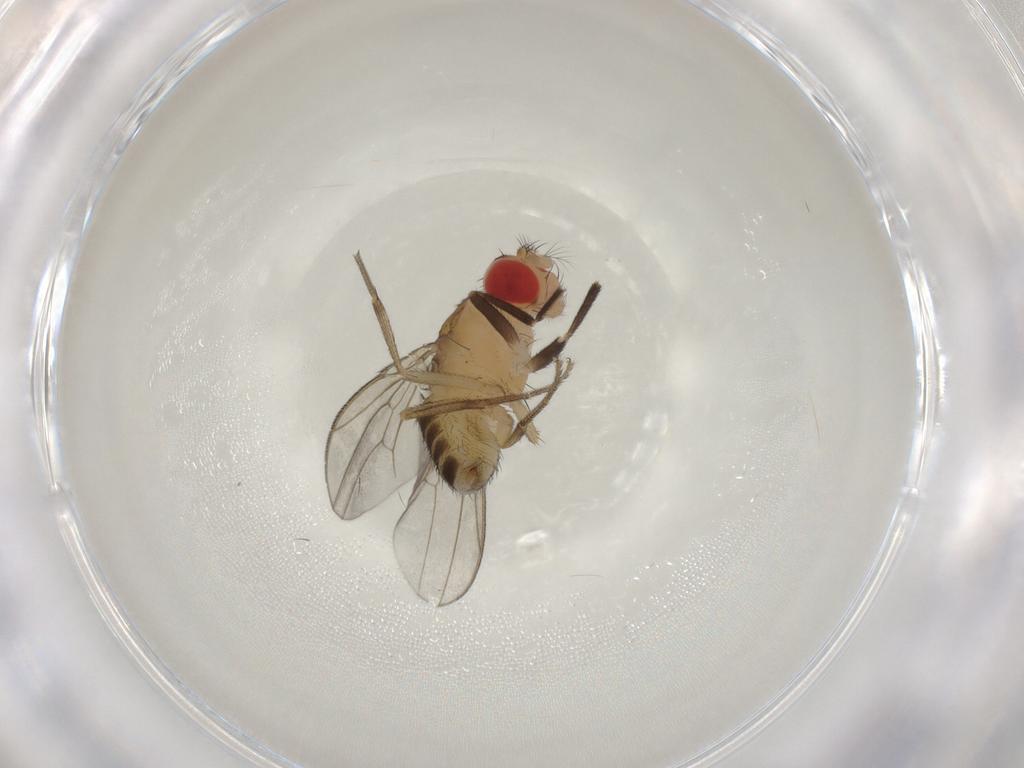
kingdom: Animalia
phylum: Arthropoda
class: Insecta
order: Diptera
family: Drosophilidae
